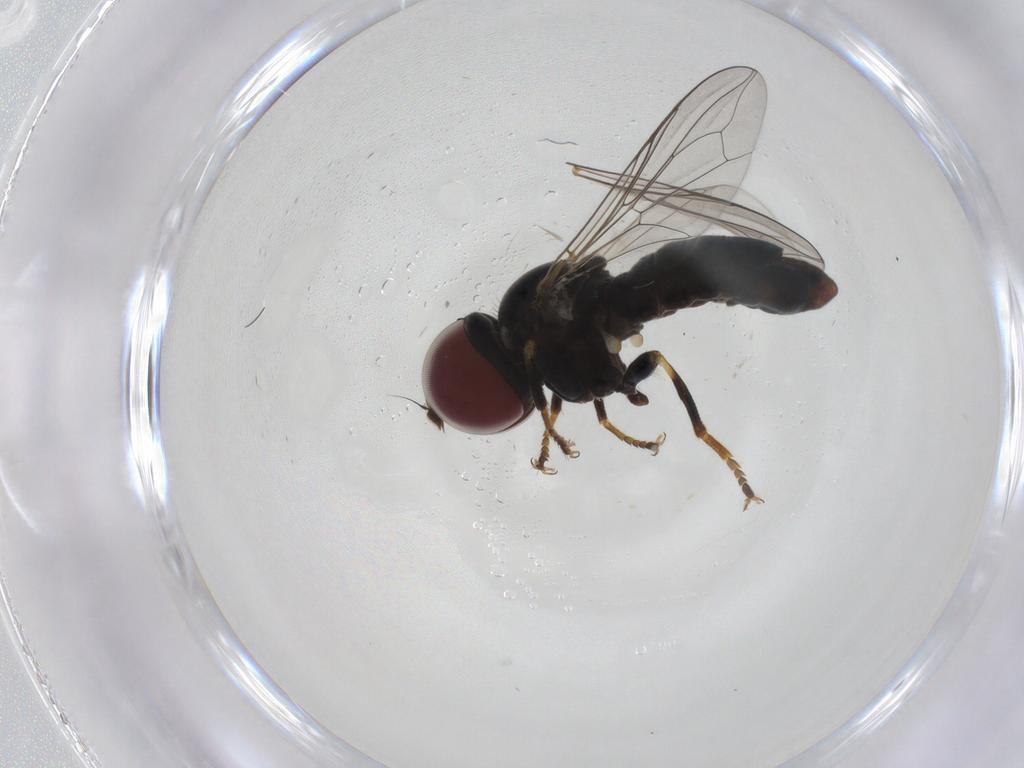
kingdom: Animalia
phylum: Arthropoda
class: Insecta
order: Diptera
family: Pipunculidae
